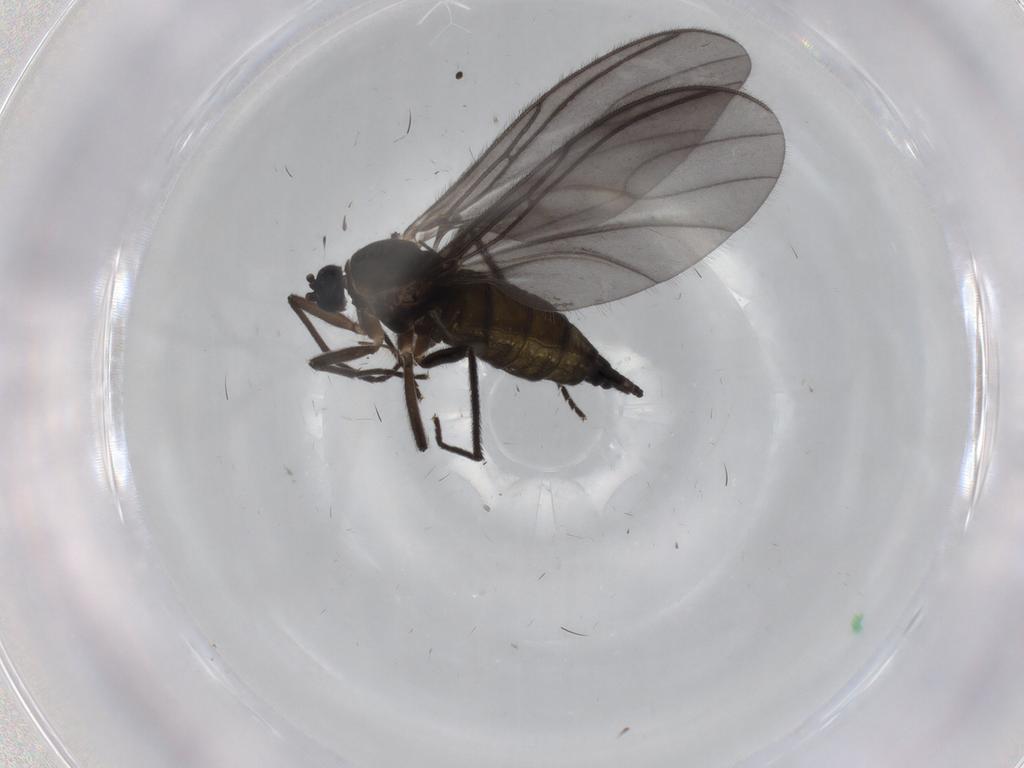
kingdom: Animalia
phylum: Arthropoda
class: Insecta
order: Diptera
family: Sciaridae
